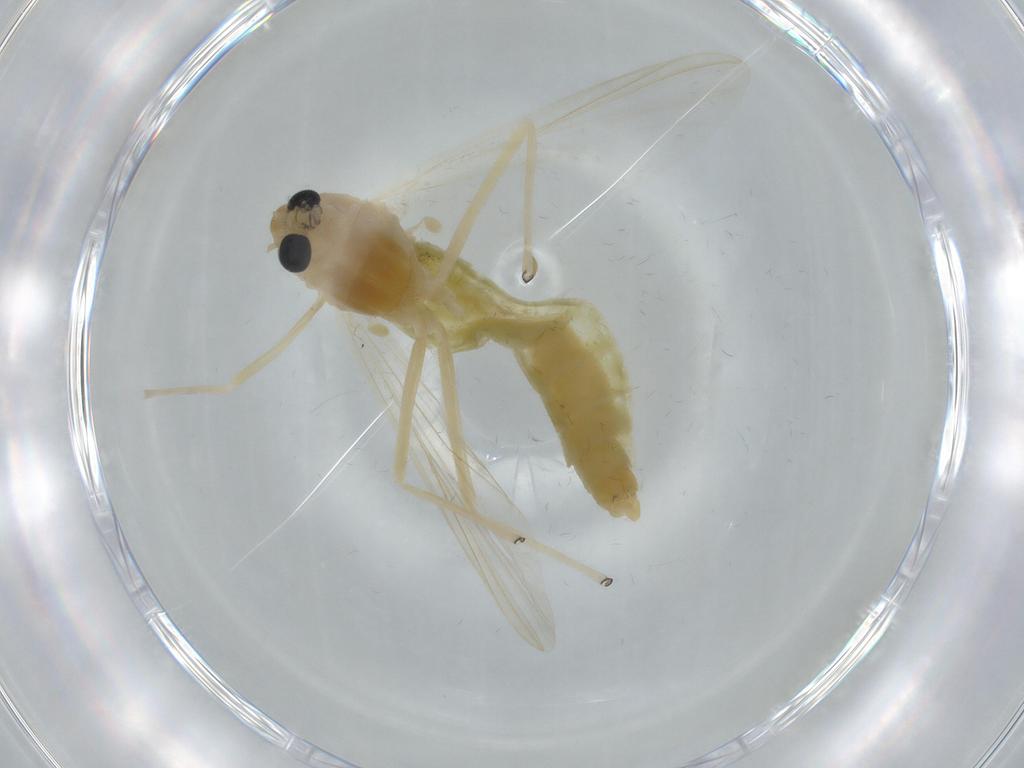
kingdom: Animalia
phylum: Arthropoda
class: Insecta
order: Diptera
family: Chironomidae
